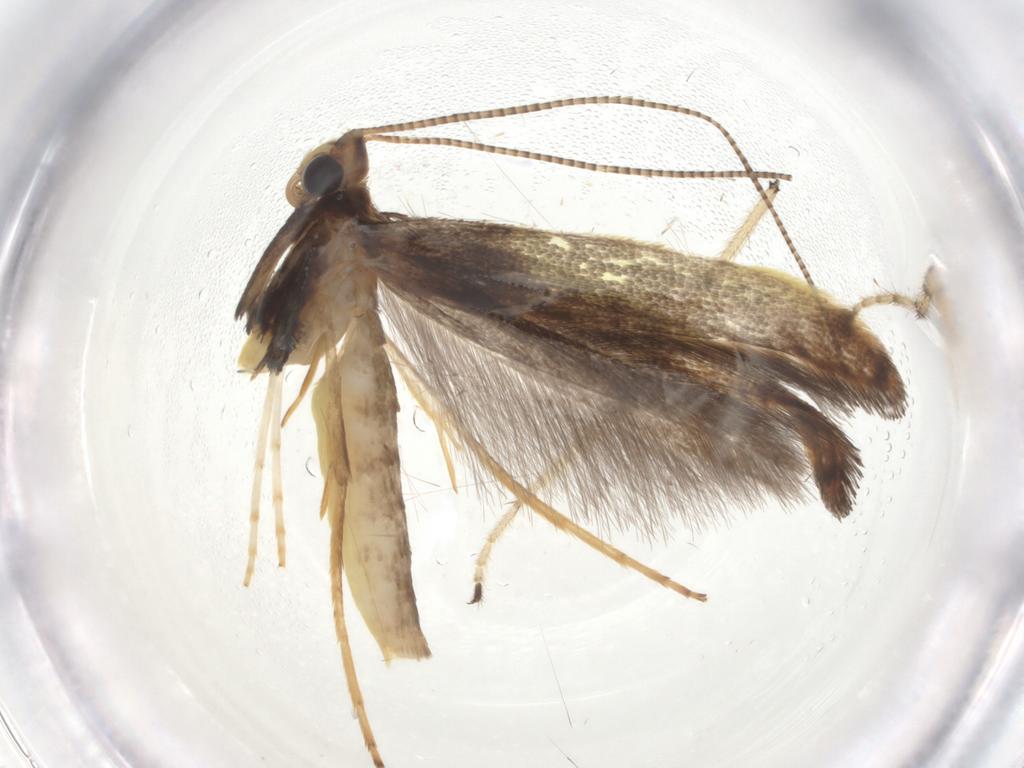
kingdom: Animalia
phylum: Arthropoda
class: Insecta
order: Lepidoptera
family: Gracillariidae
